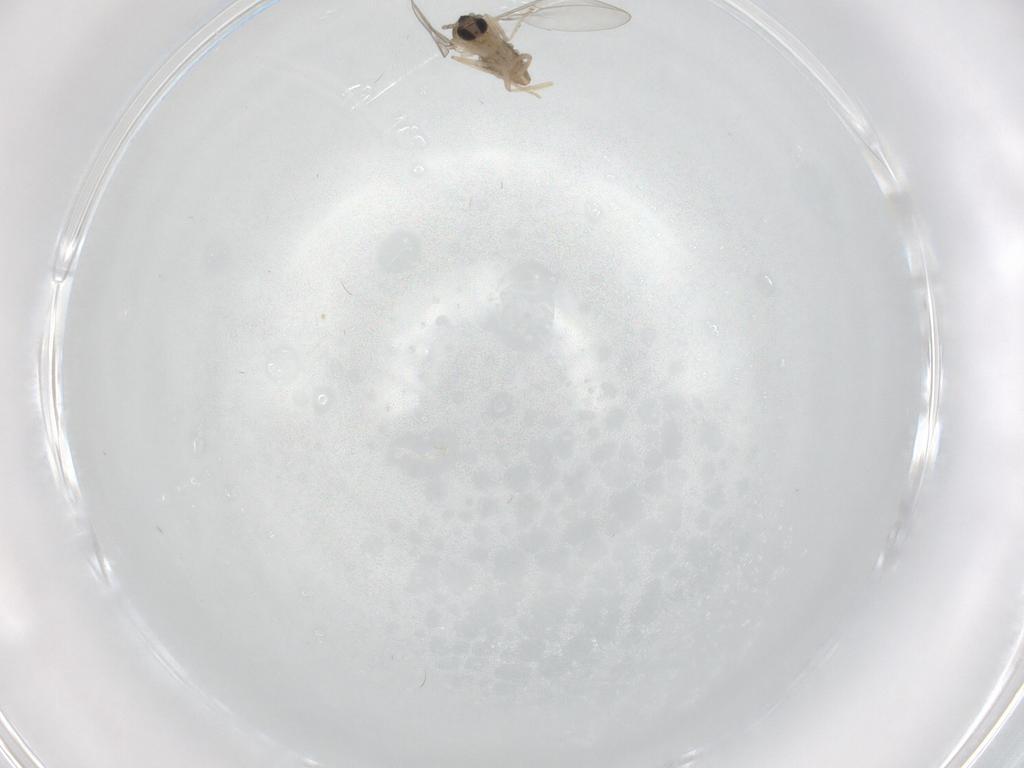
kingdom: Animalia
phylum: Arthropoda
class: Insecta
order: Diptera
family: Cecidomyiidae
